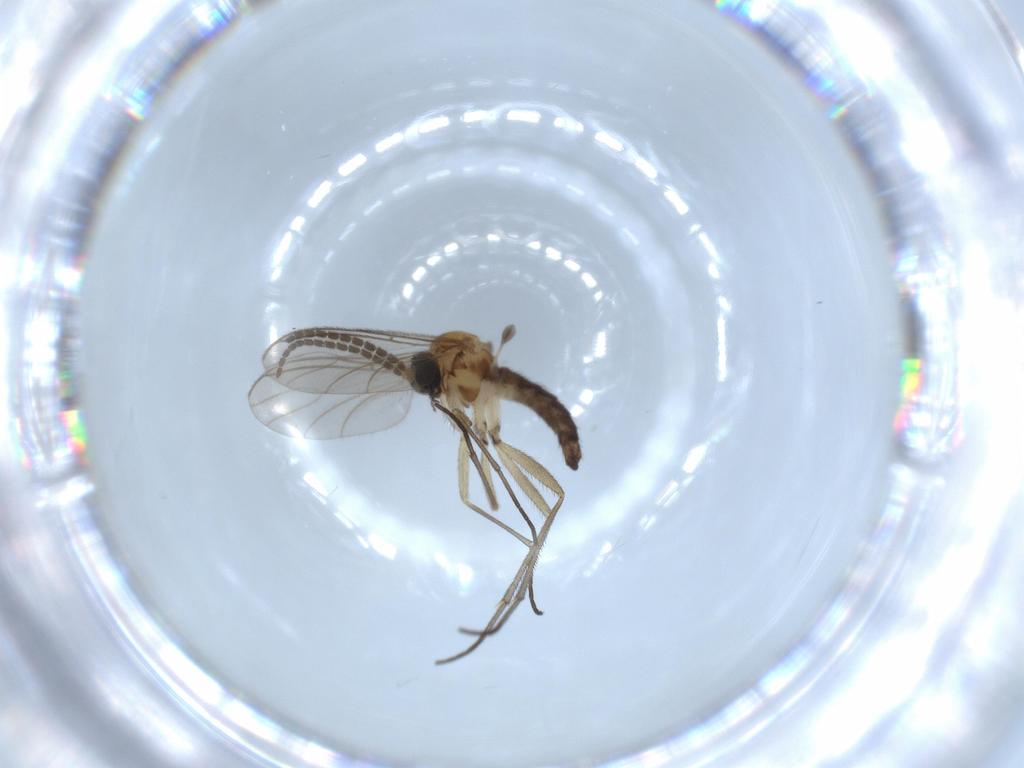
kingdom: Animalia
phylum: Arthropoda
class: Insecta
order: Diptera
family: Sciaridae
